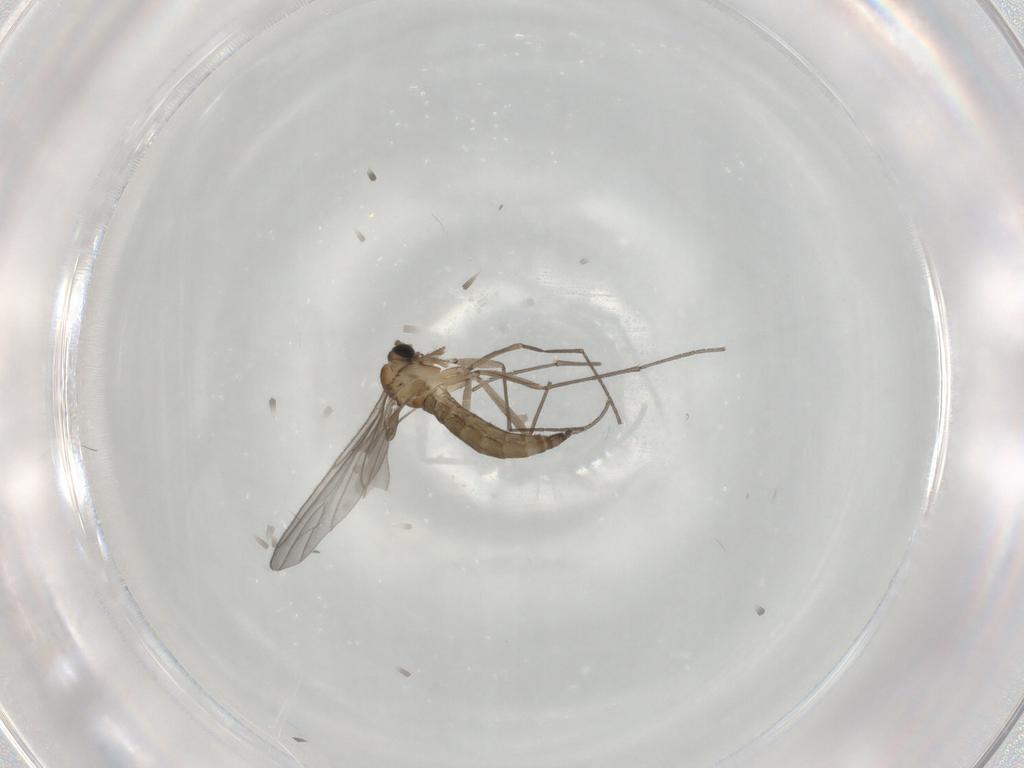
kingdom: Animalia
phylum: Arthropoda
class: Insecta
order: Diptera
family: Sciaridae
